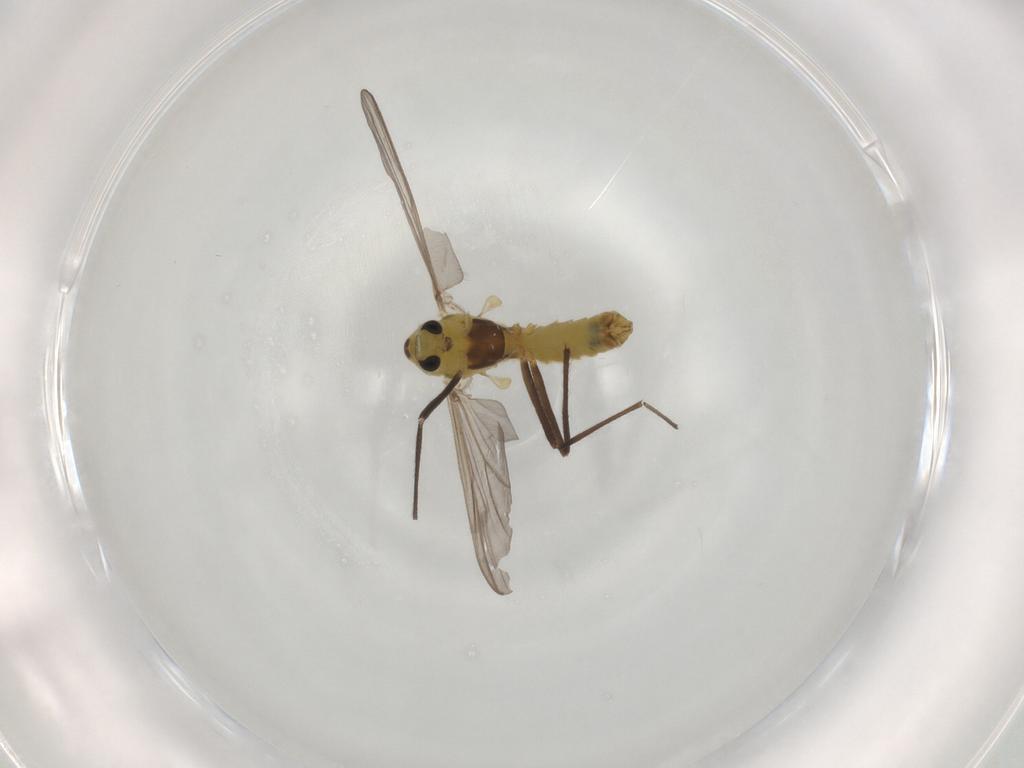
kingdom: Animalia
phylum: Arthropoda
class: Insecta
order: Diptera
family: Chironomidae
